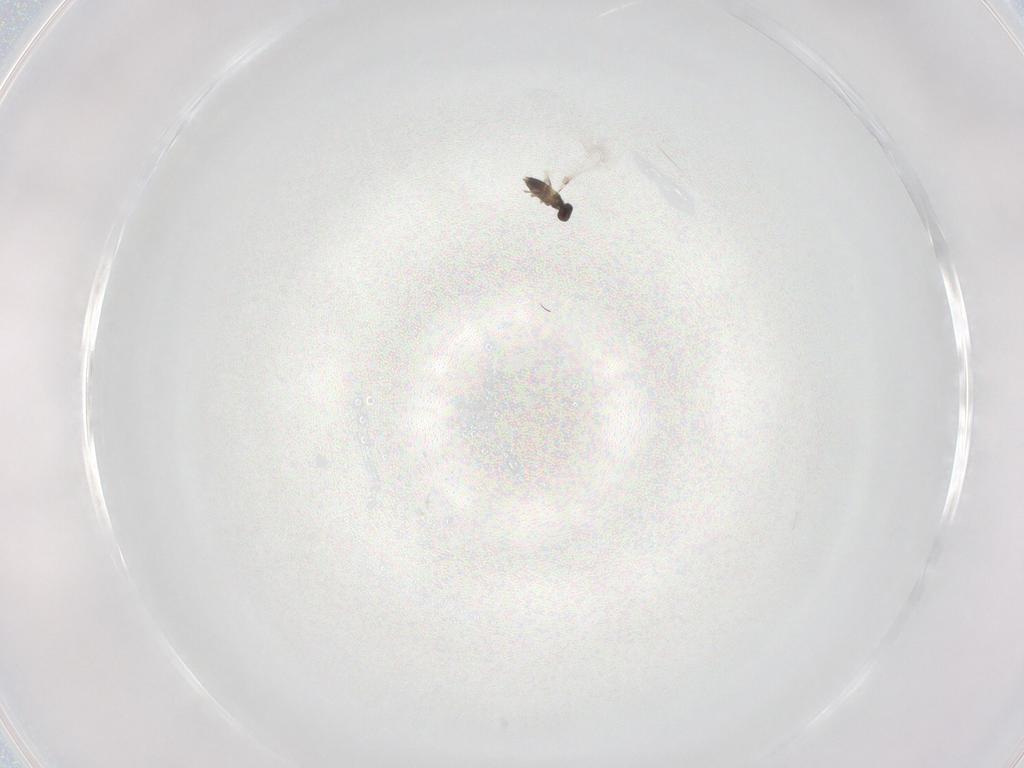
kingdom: Animalia
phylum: Arthropoda
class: Insecta
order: Hymenoptera
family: Mymaridae
